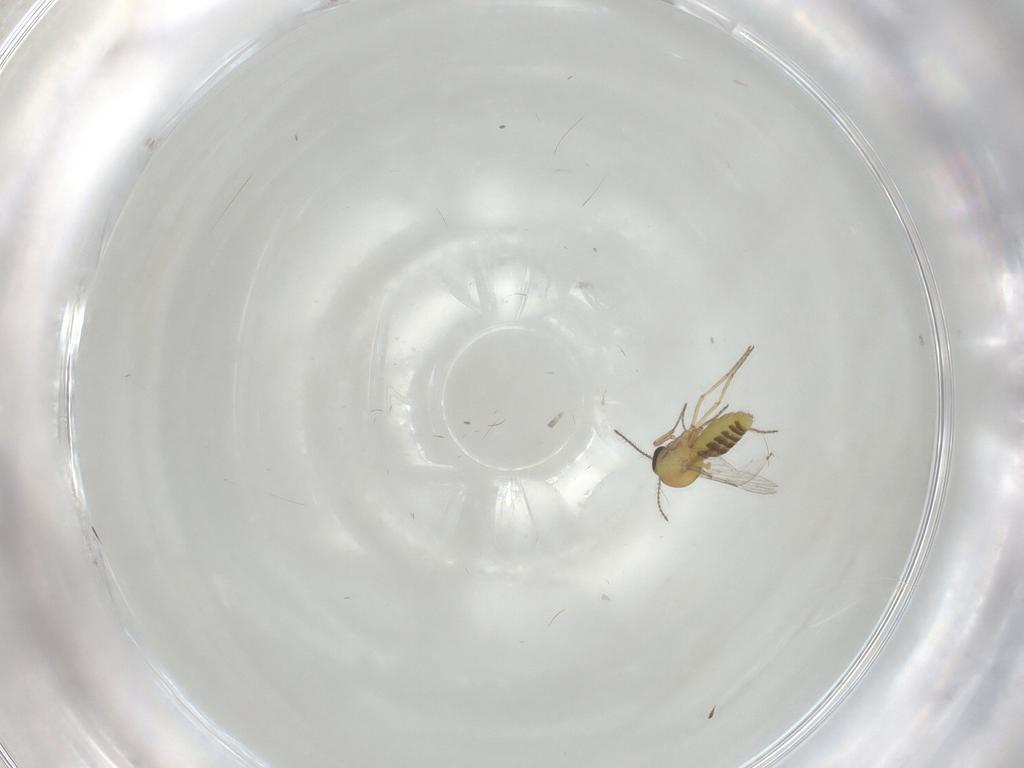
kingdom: Animalia
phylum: Arthropoda
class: Insecta
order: Diptera
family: Ceratopogonidae
